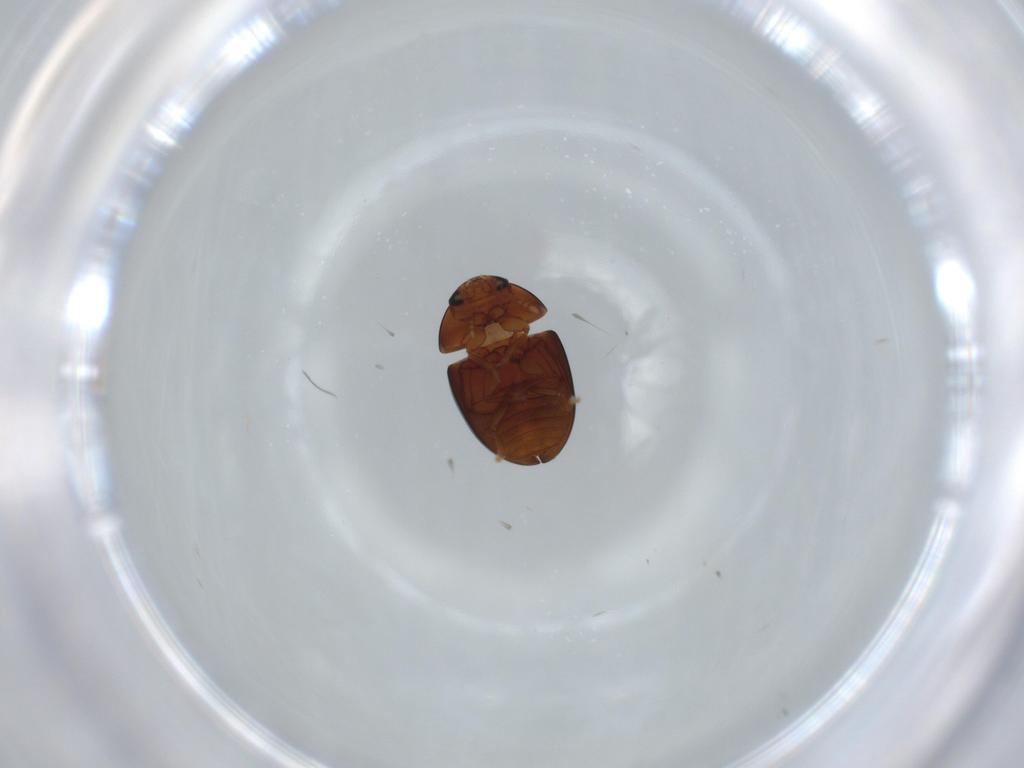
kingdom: Animalia
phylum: Arthropoda
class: Insecta
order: Coleoptera
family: Phalacridae
